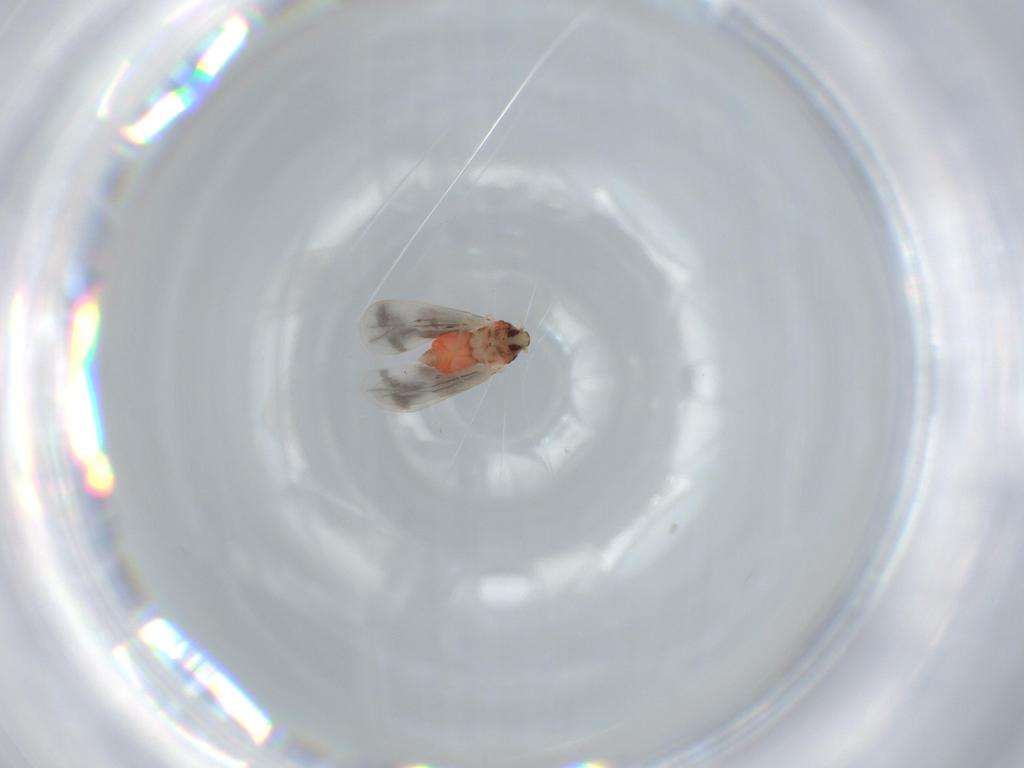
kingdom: Animalia
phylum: Arthropoda
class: Insecta
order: Hemiptera
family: Aleyrodidae
